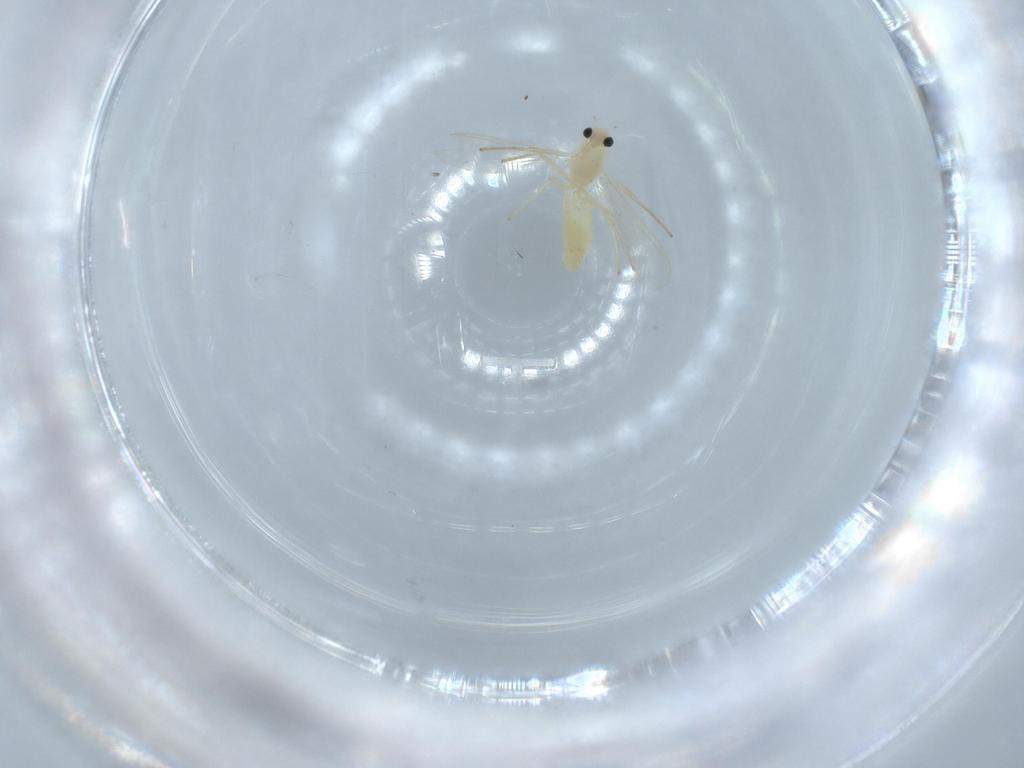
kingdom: Animalia
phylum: Arthropoda
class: Insecta
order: Diptera
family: Chironomidae
